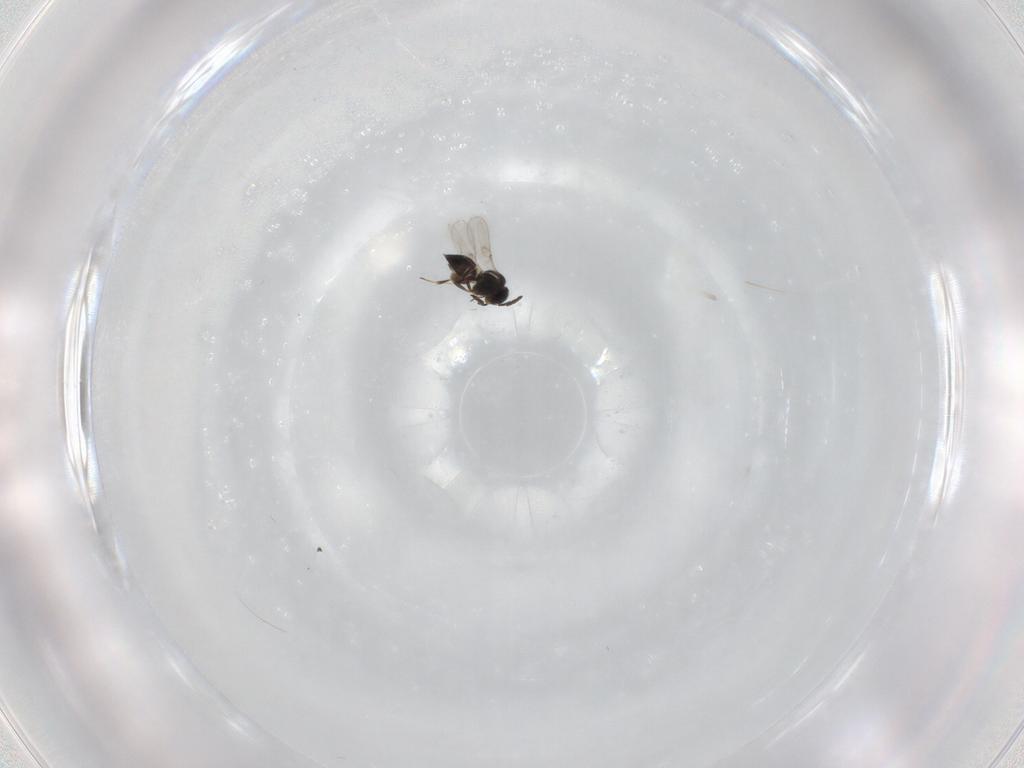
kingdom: Animalia
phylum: Arthropoda
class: Insecta
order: Hymenoptera
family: Scelionidae
